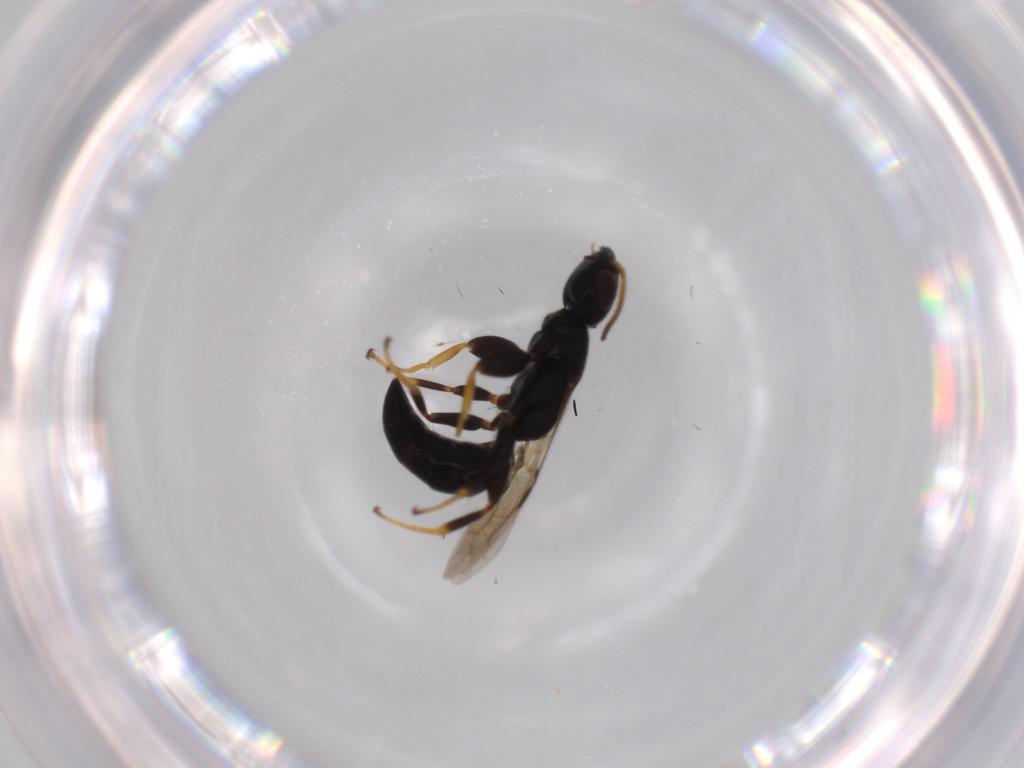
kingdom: Animalia
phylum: Arthropoda
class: Insecta
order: Hymenoptera
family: Bethylidae
